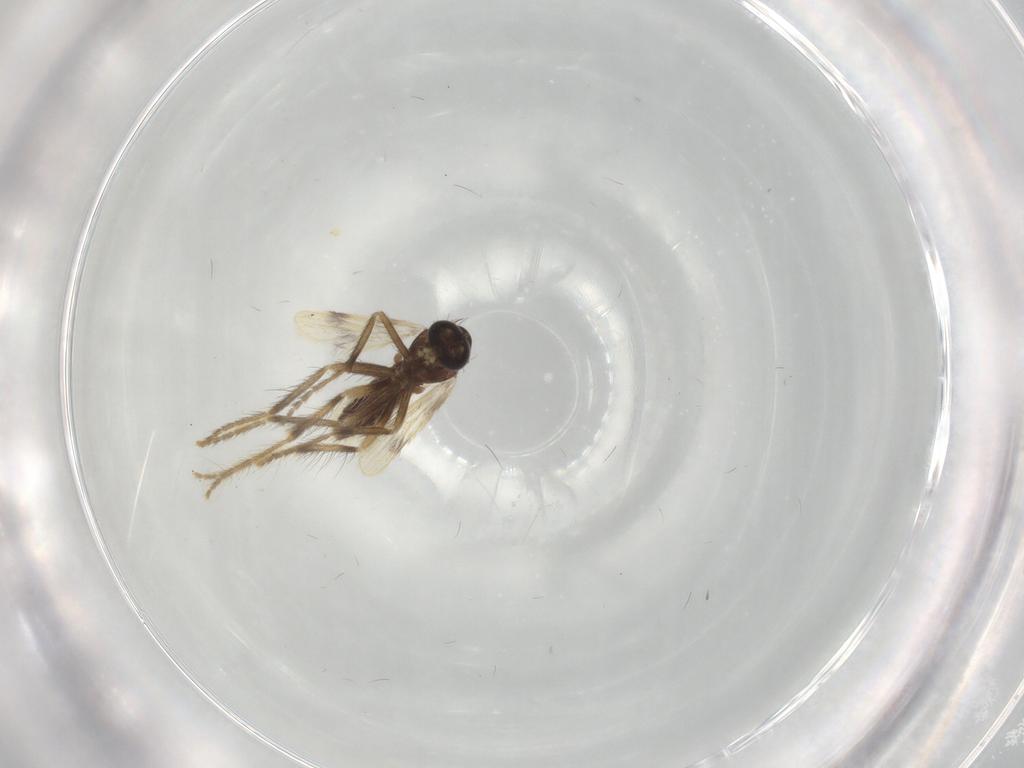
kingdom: Animalia
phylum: Arthropoda
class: Insecta
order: Diptera
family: Corethrellidae
